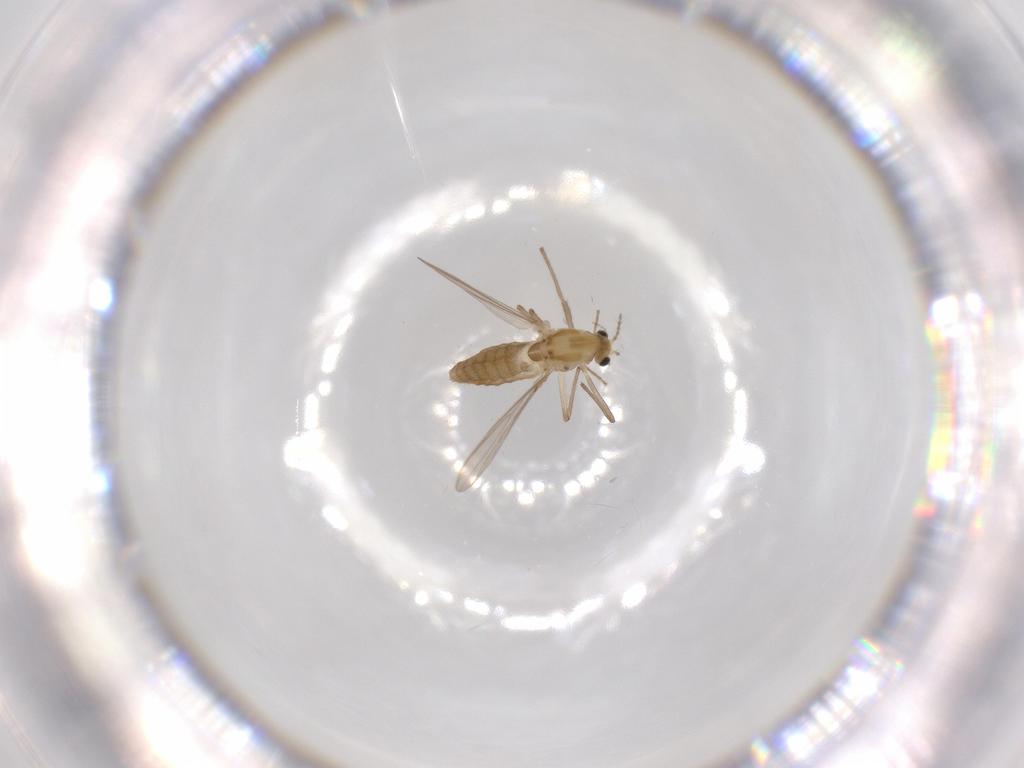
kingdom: Animalia
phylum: Arthropoda
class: Insecta
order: Diptera
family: Chironomidae
